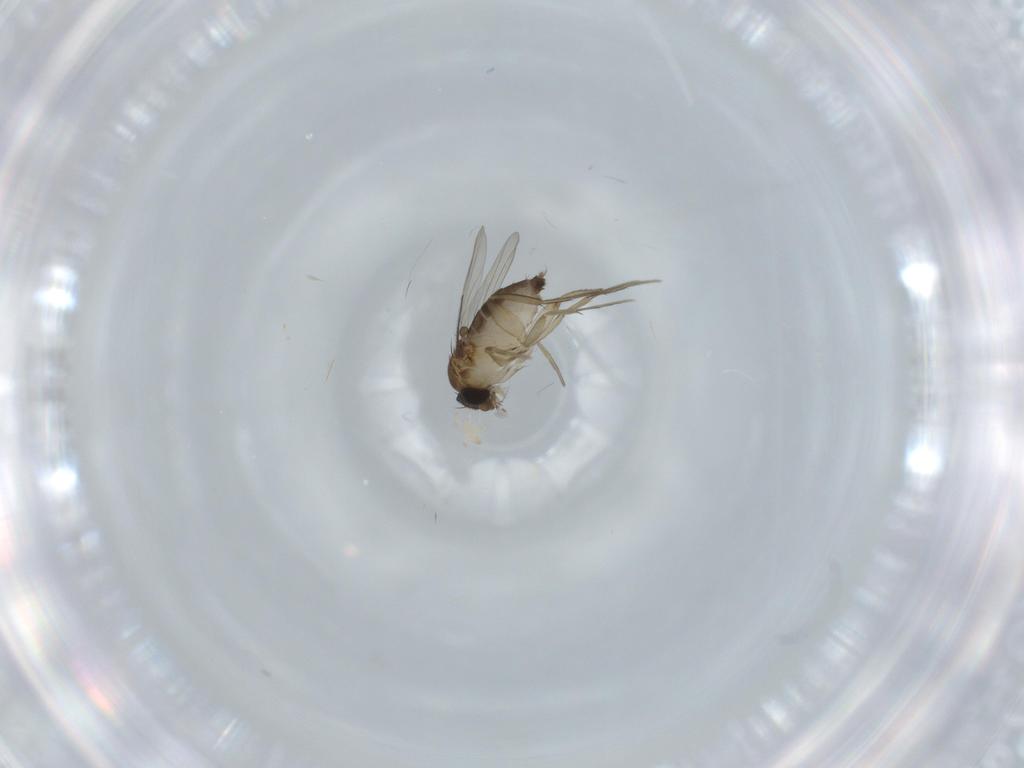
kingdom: Animalia
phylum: Arthropoda
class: Insecta
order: Diptera
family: Phoridae
